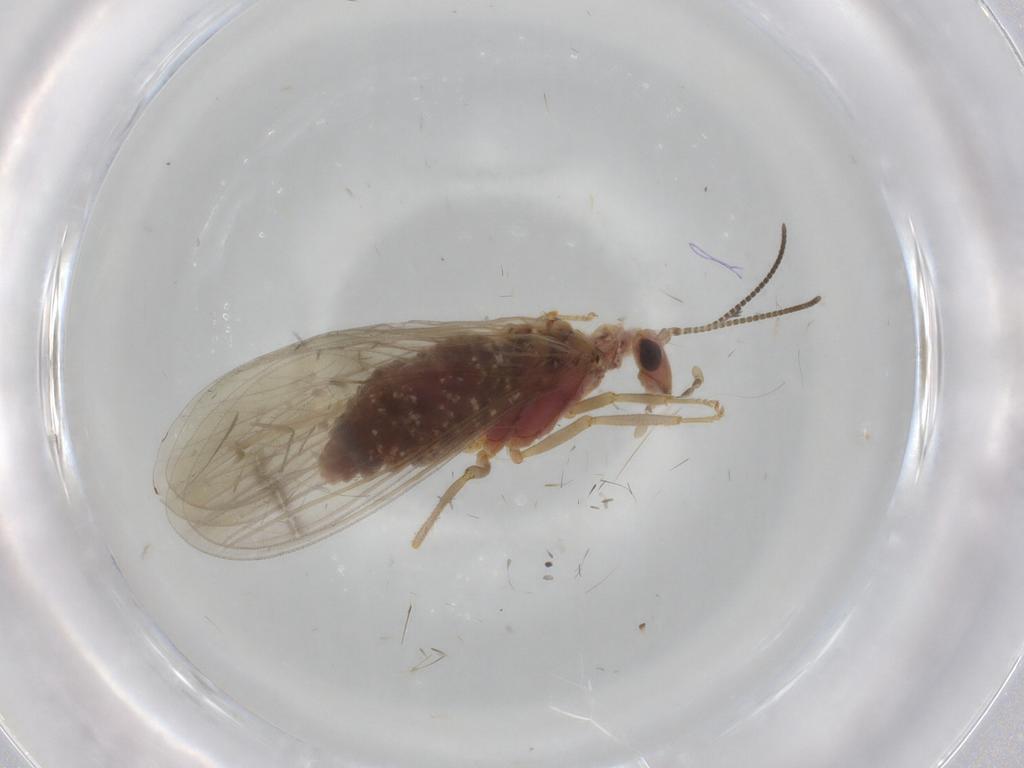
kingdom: Animalia
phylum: Arthropoda
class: Insecta
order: Neuroptera
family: Coniopterygidae
